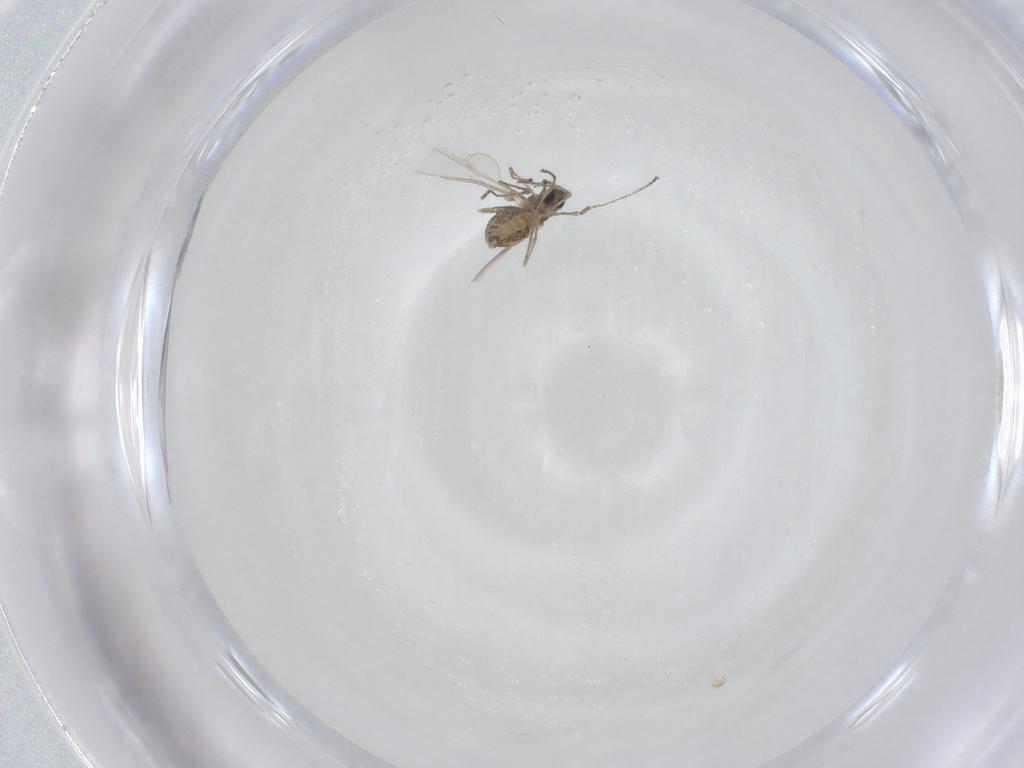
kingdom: Animalia
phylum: Arthropoda
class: Insecta
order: Diptera
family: Cecidomyiidae
